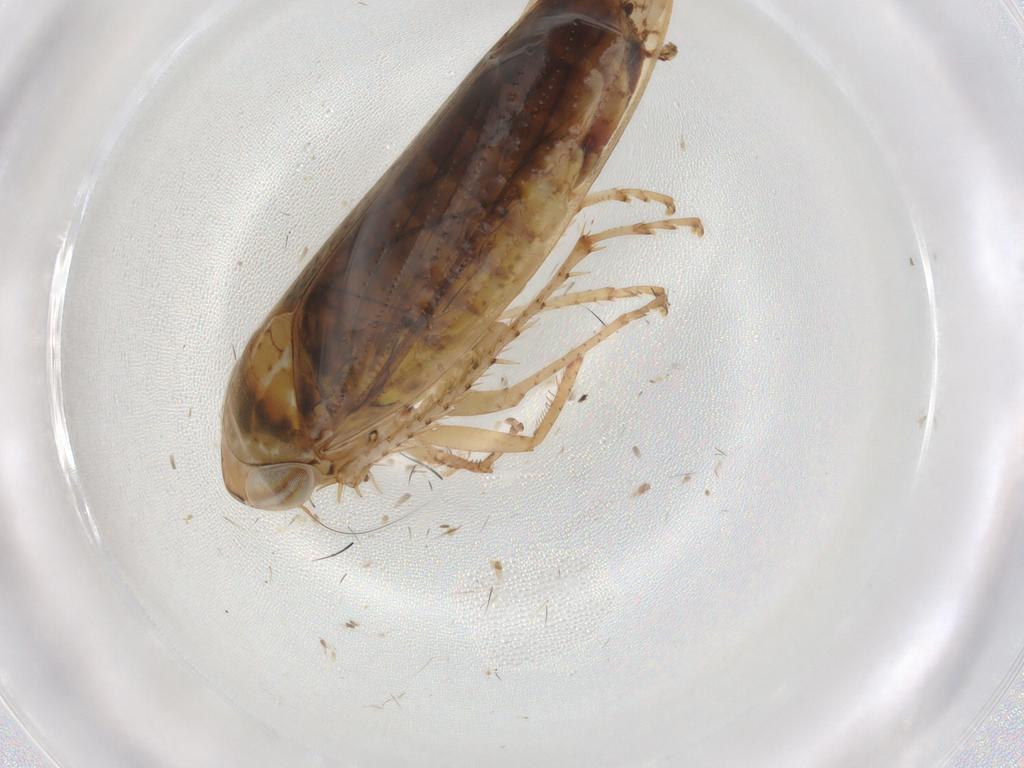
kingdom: Animalia
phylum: Arthropoda
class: Insecta
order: Hemiptera
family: Cicadellidae
